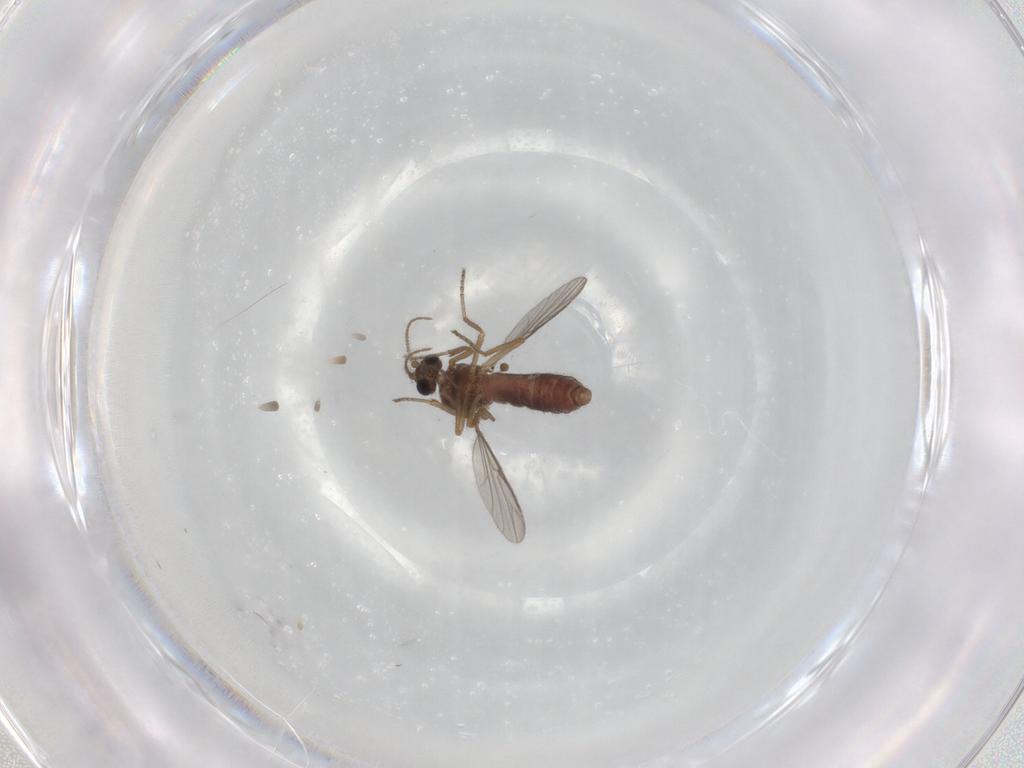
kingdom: Animalia
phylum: Arthropoda
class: Insecta
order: Diptera
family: Ceratopogonidae
